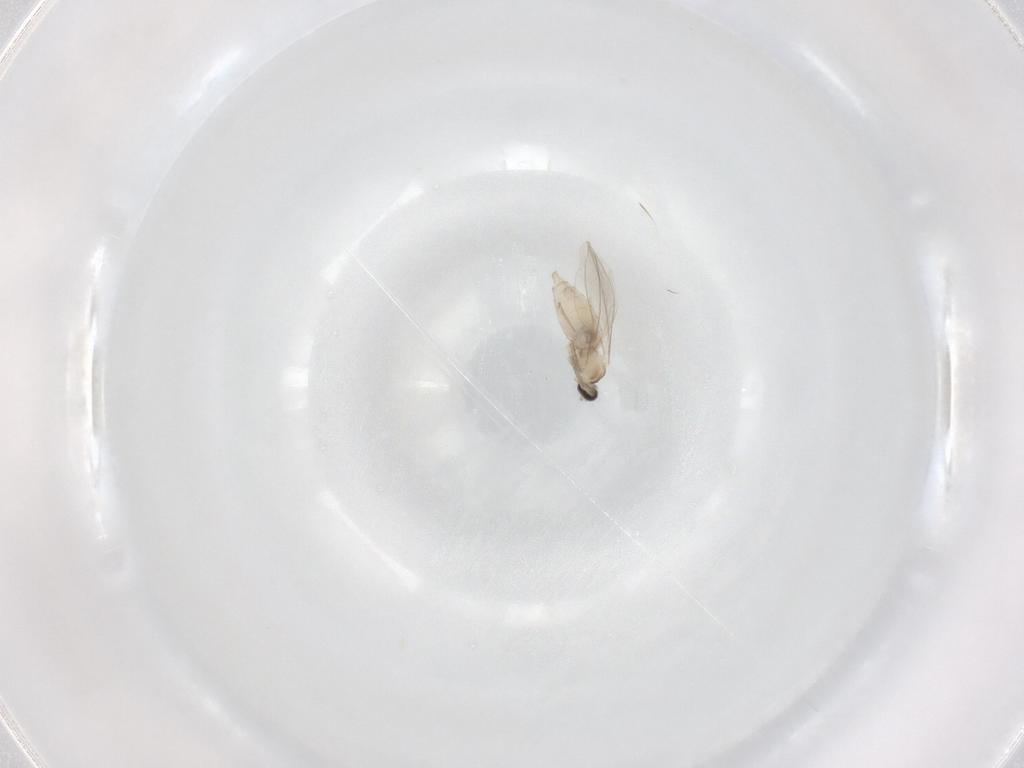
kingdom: Animalia
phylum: Arthropoda
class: Insecta
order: Diptera
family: Cecidomyiidae
